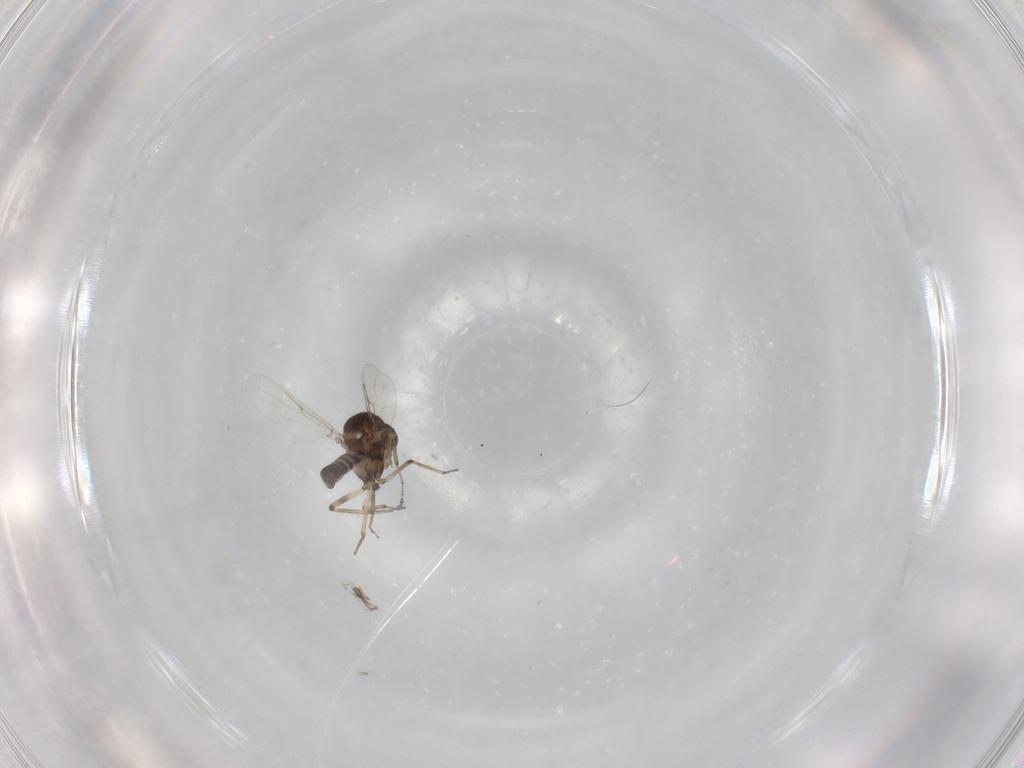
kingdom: Animalia
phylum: Arthropoda
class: Insecta
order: Diptera
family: Ceratopogonidae
